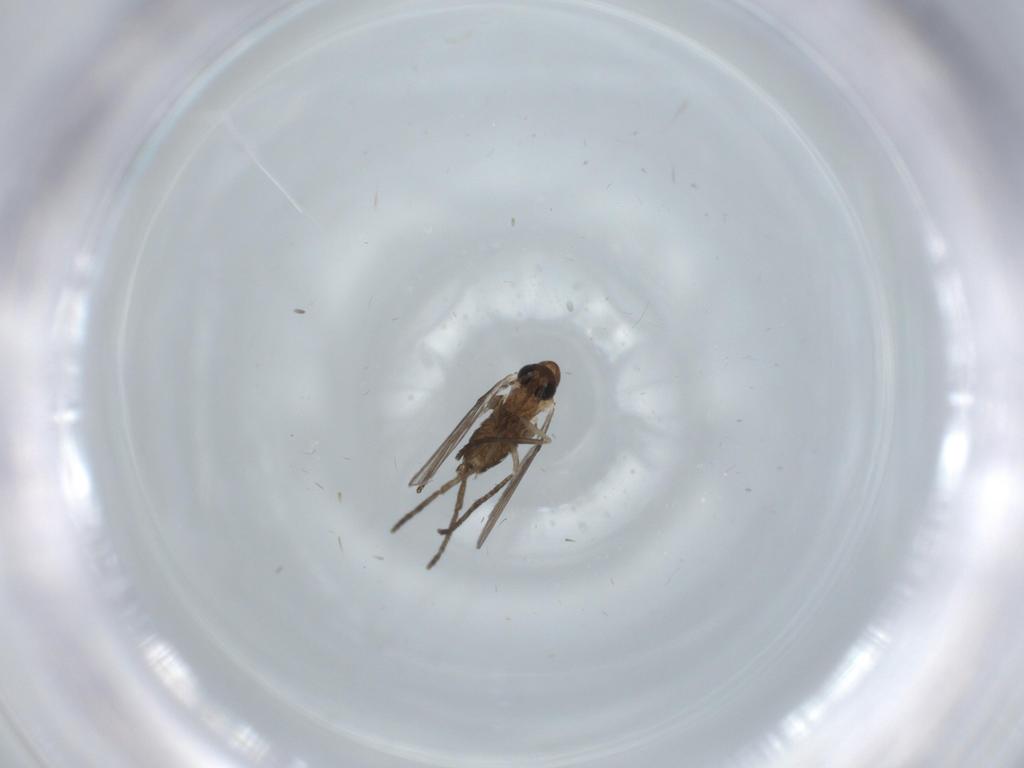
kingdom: Animalia
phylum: Arthropoda
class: Insecta
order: Diptera
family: Psychodidae
